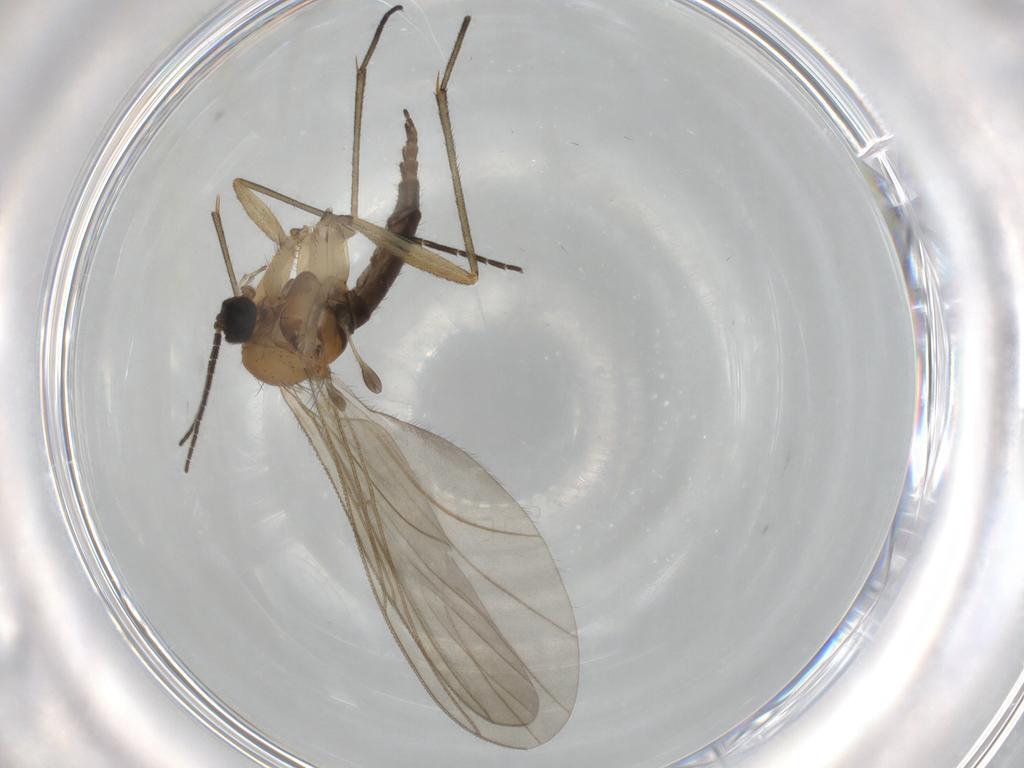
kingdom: Animalia
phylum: Arthropoda
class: Insecta
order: Diptera
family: Sciaridae
